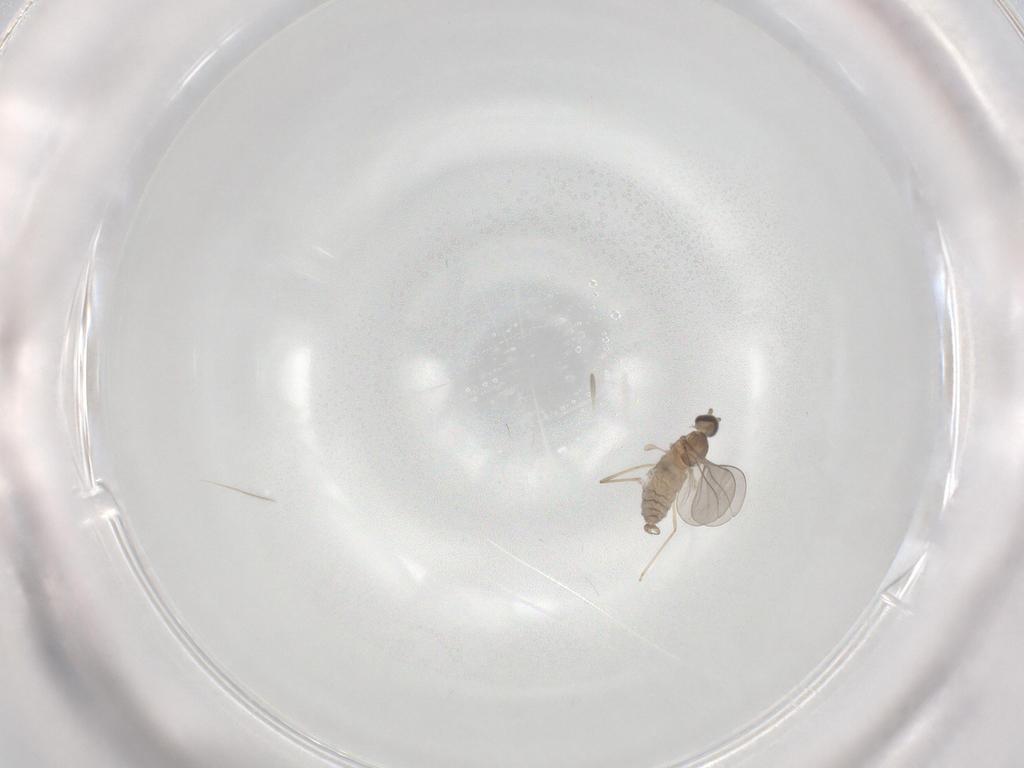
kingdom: Animalia
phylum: Arthropoda
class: Insecta
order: Diptera
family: Cecidomyiidae
